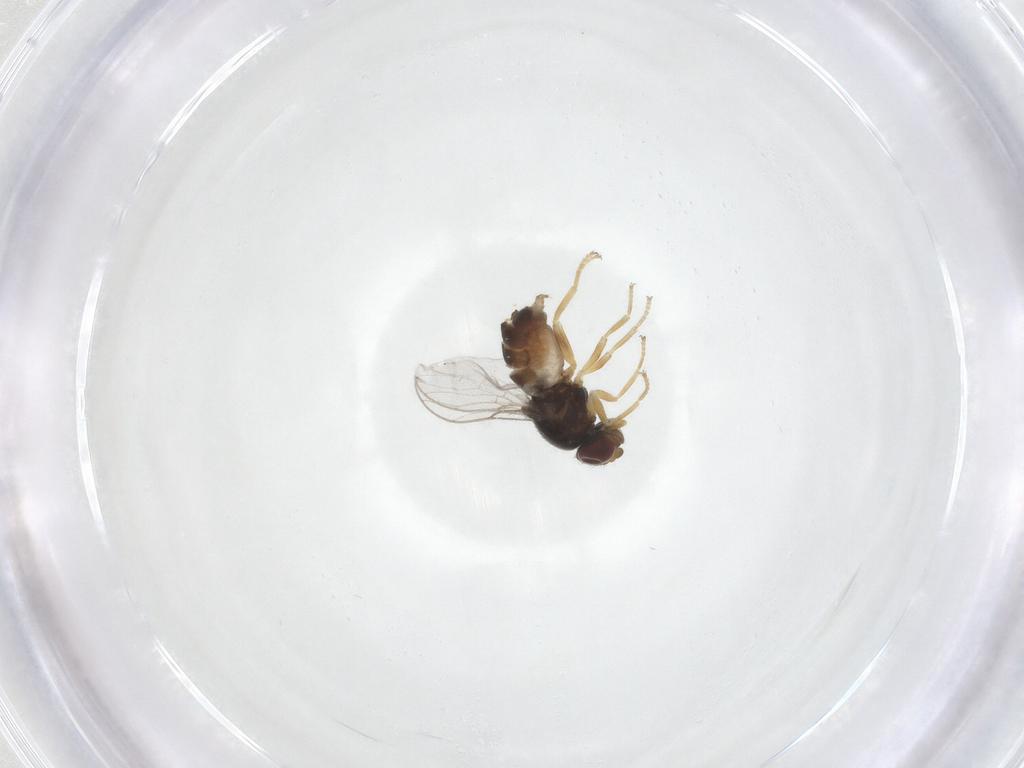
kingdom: Animalia
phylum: Arthropoda
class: Insecta
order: Diptera
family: Chloropidae
